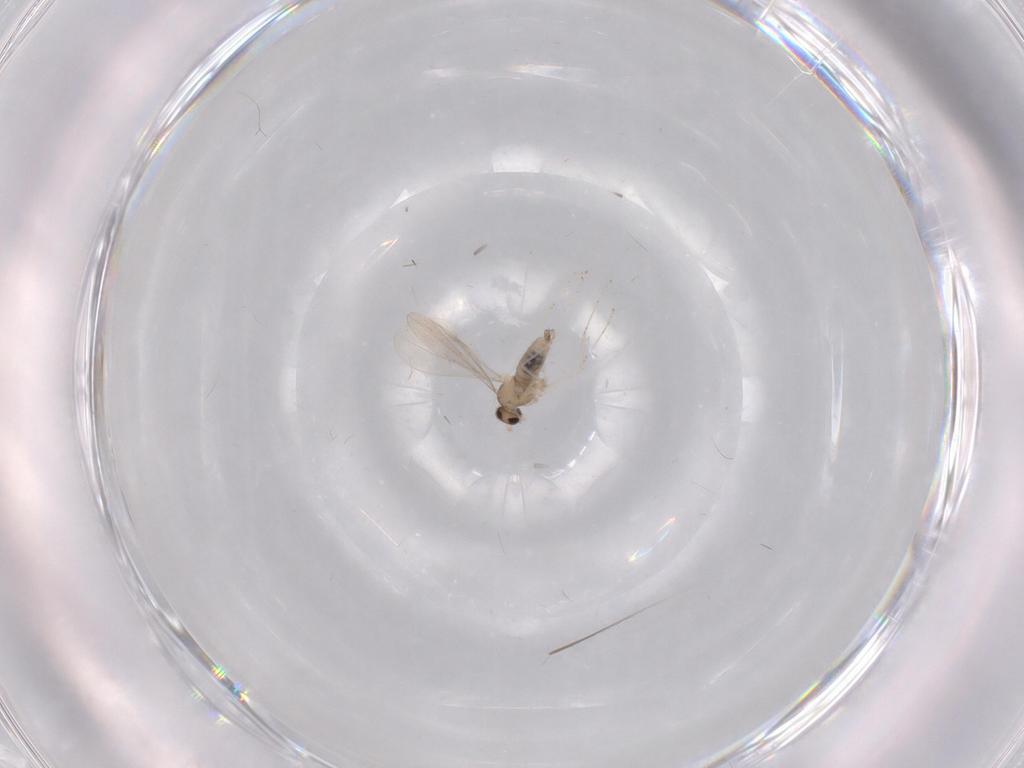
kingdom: Animalia
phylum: Arthropoda
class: Insecta
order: Diptera
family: Cecidomyiidae
